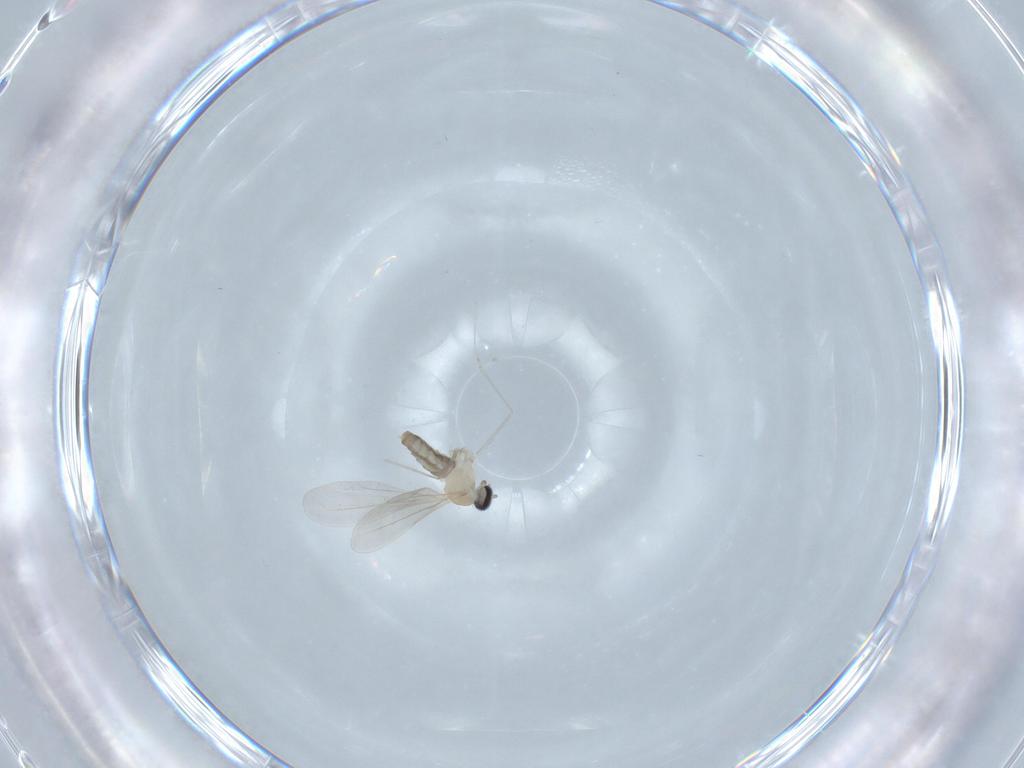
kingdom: Animalia
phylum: Arthropoda
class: Insecta
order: Diptera
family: Cecidomyiidae
